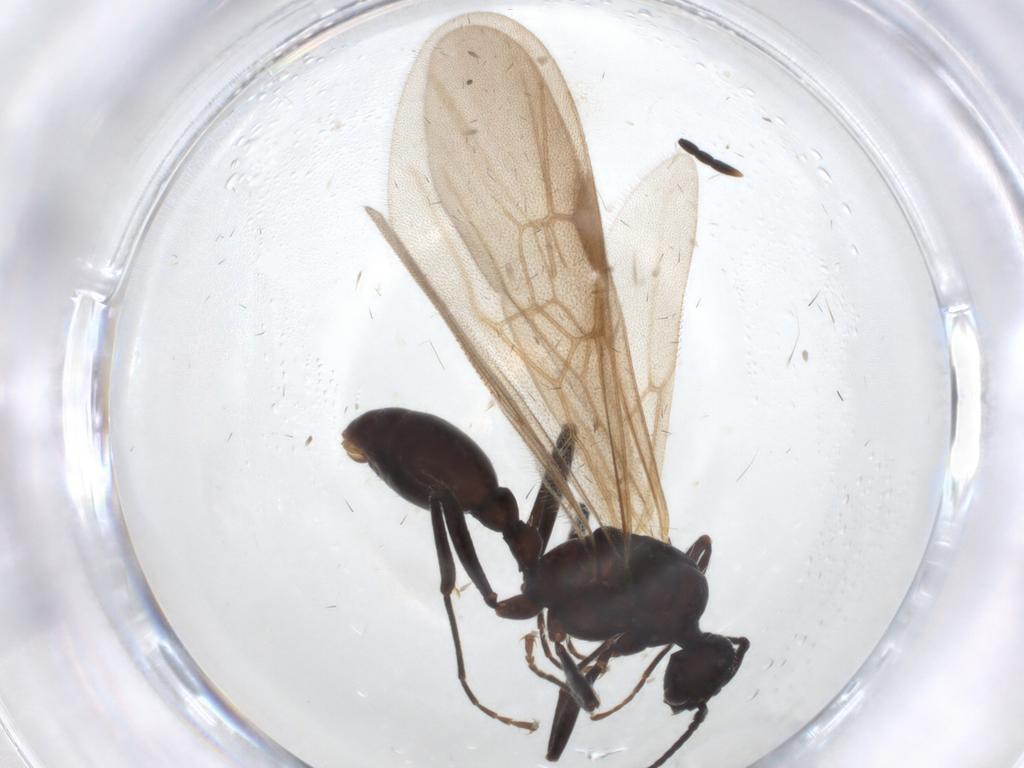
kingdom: Animalia
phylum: Arthropoda
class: Insecta
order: Hymenoptera
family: Formicidae
